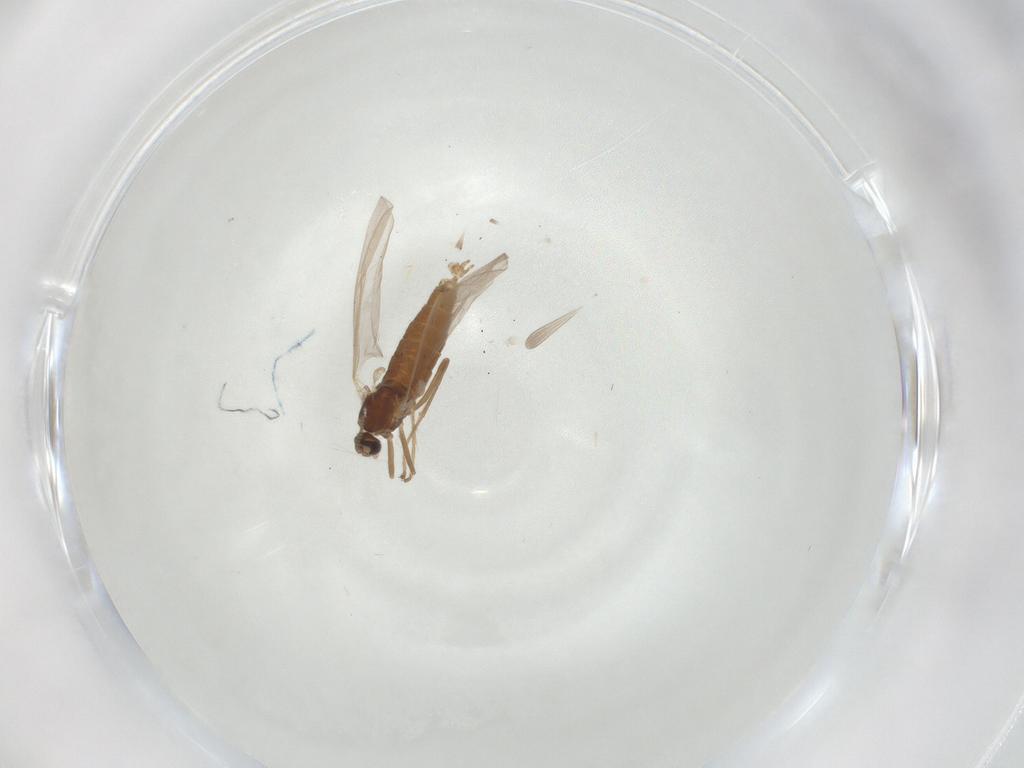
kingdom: Animalia
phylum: Arthropoda
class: Insecta
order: Diptera
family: Cecidomyiidae
